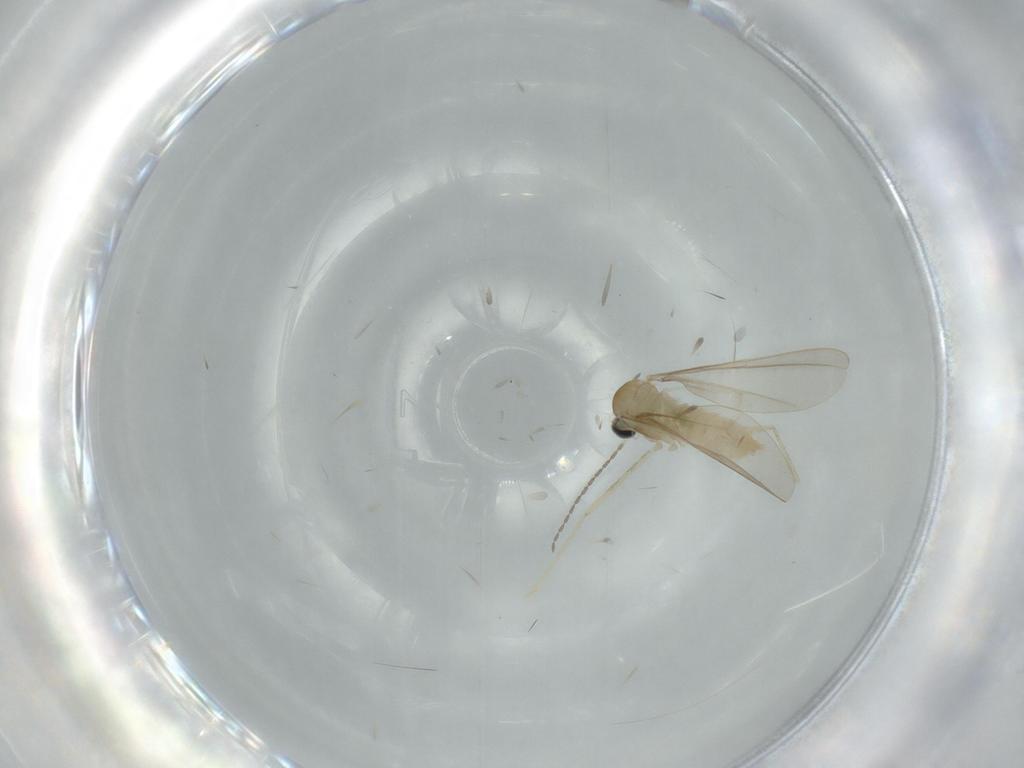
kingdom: Animalia
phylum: Arthropoda
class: Insecta
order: Diptera
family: Cecidomyiidae
